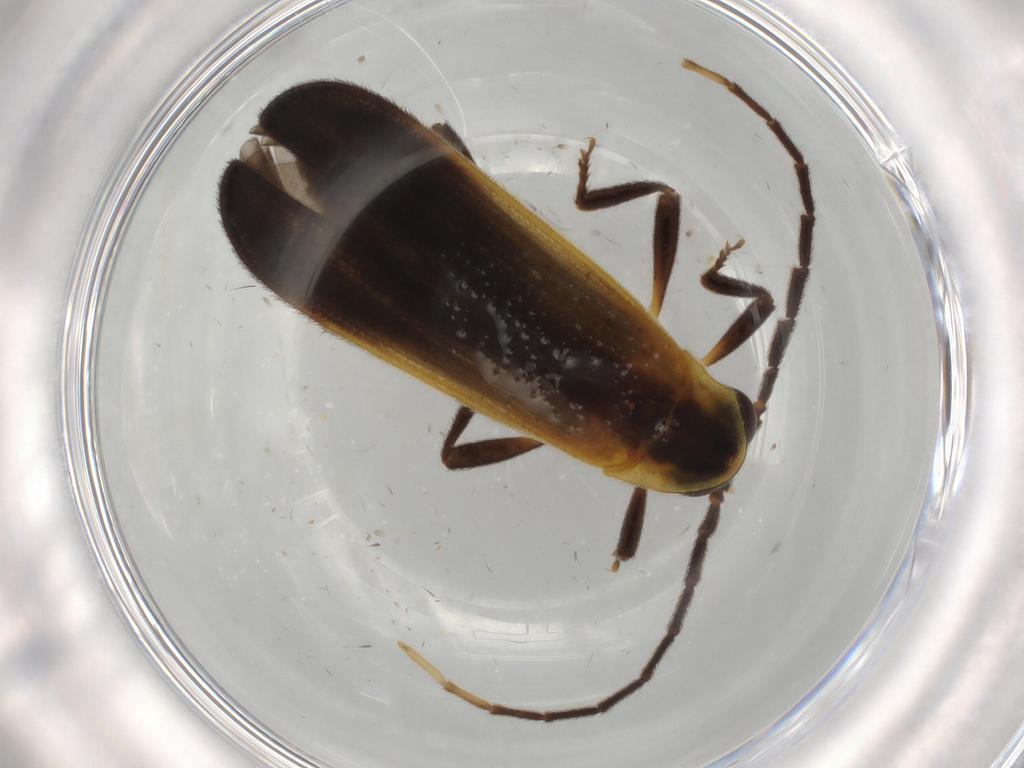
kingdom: Animalia
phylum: Arthropoda
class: Insecta
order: Coleoptera
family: Lycidae
